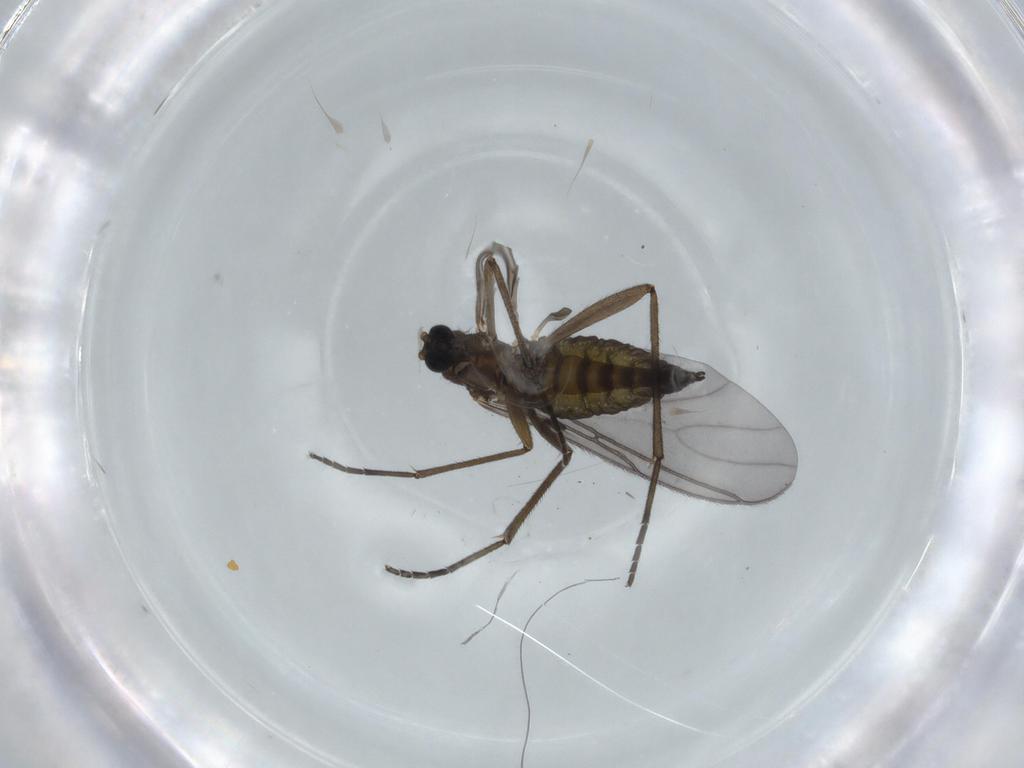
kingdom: Animalia
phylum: Arthropoda
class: Insecta
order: Diptera
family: Sciaridae
